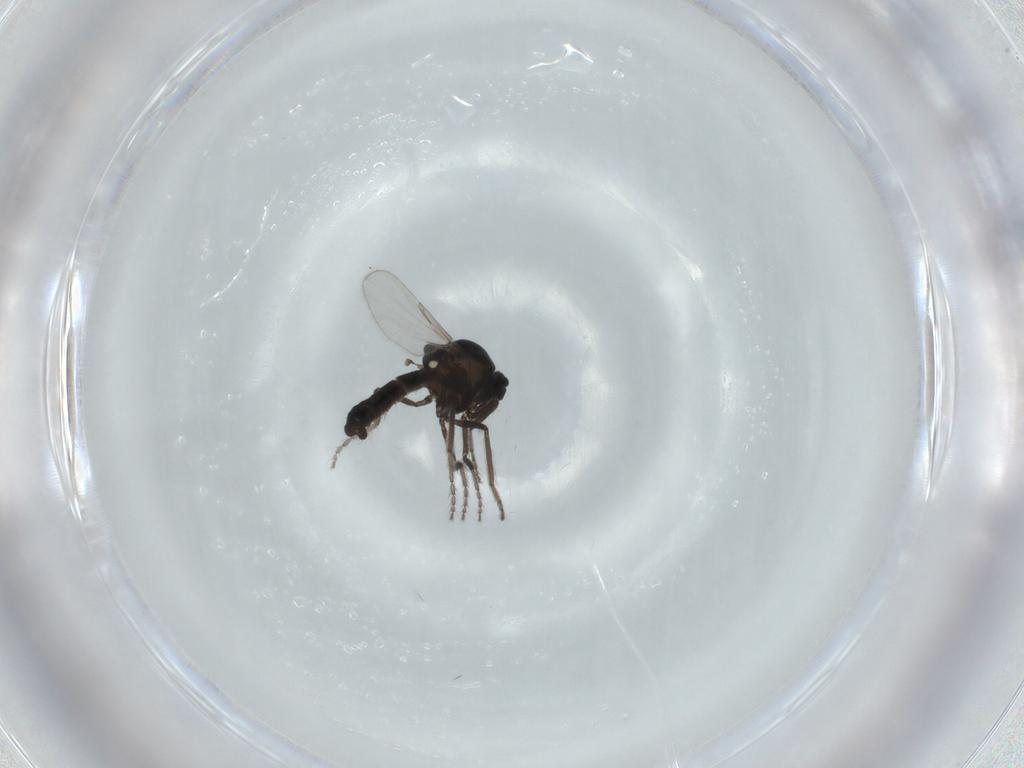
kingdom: Animalia
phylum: Arthropoda
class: Insecta
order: Diptera
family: Ceratopogonidae
